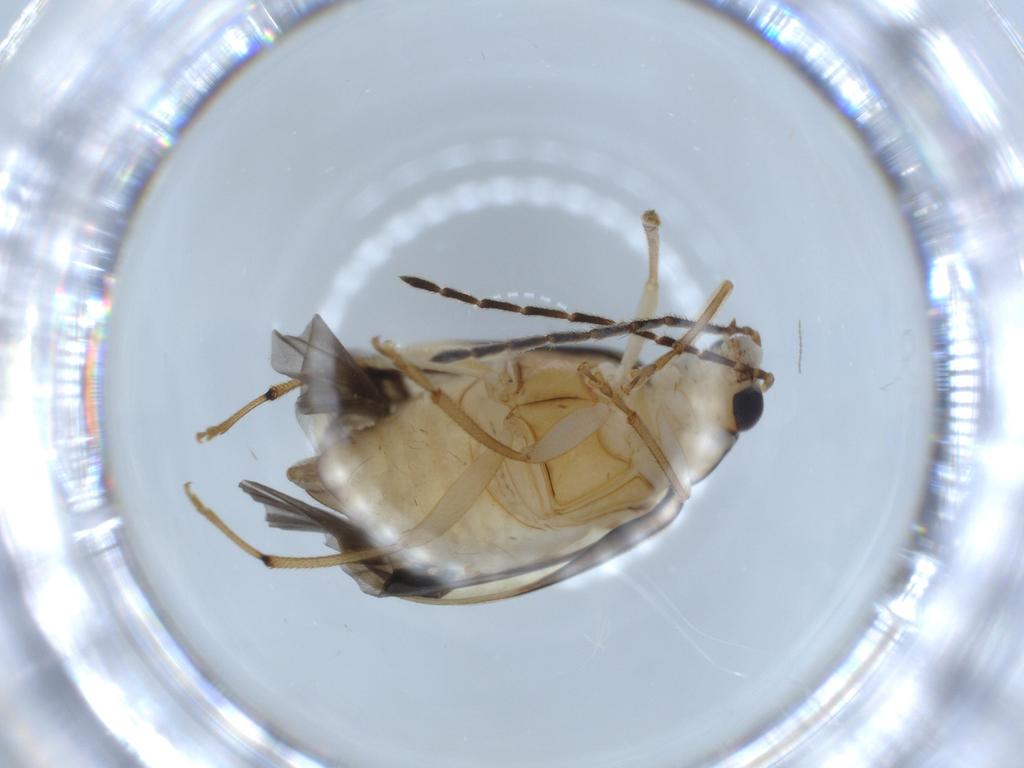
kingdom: Animalia
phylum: Arthropoda
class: Insecta
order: Coleoptera
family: Chrysomelidae
